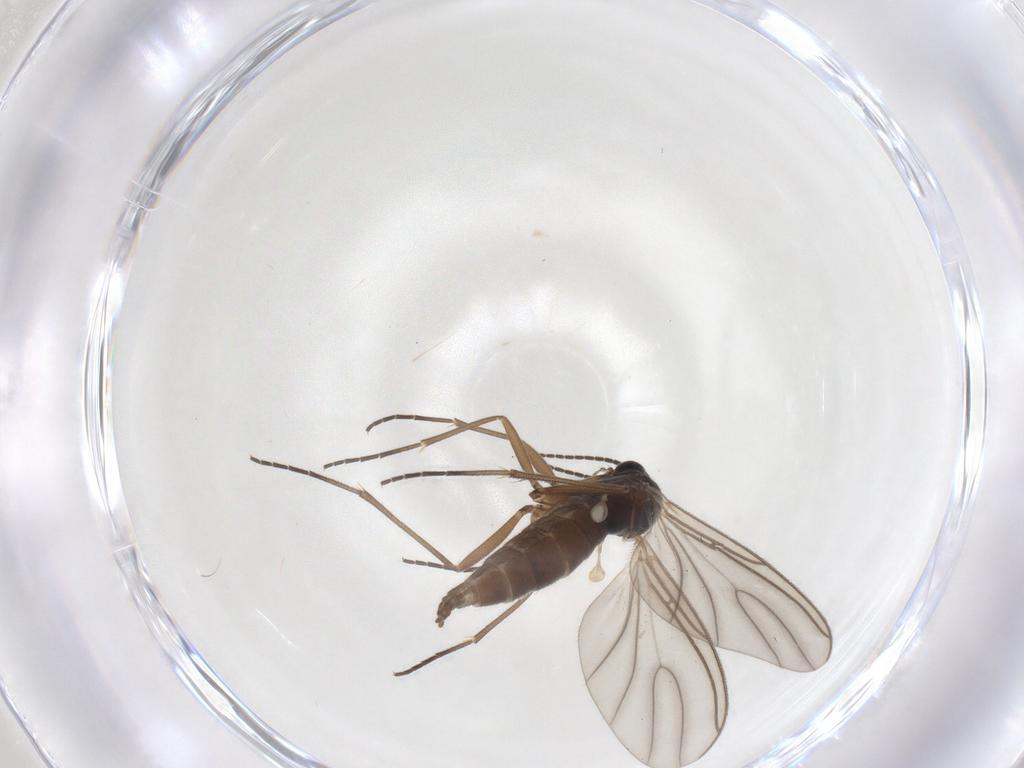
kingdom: Animalia
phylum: Arthropoda
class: Insecta
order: Diptera
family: Sciaridae
